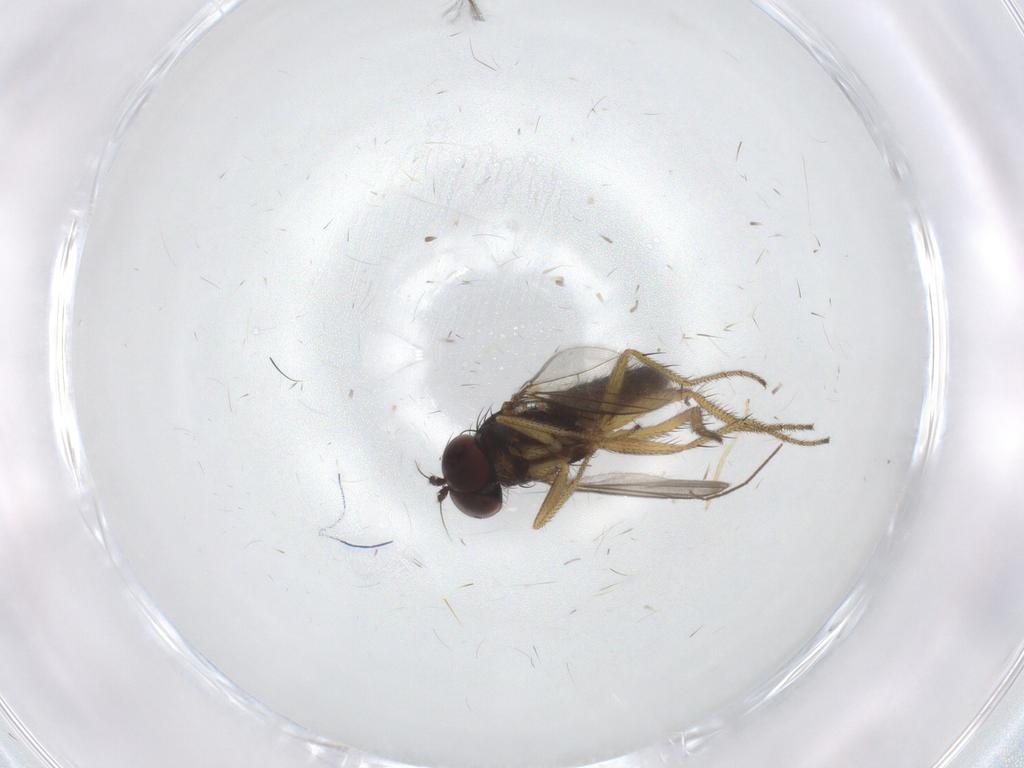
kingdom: Animalia
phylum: Arthropoda
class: Insecta
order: Diptera
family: Chironomidae
